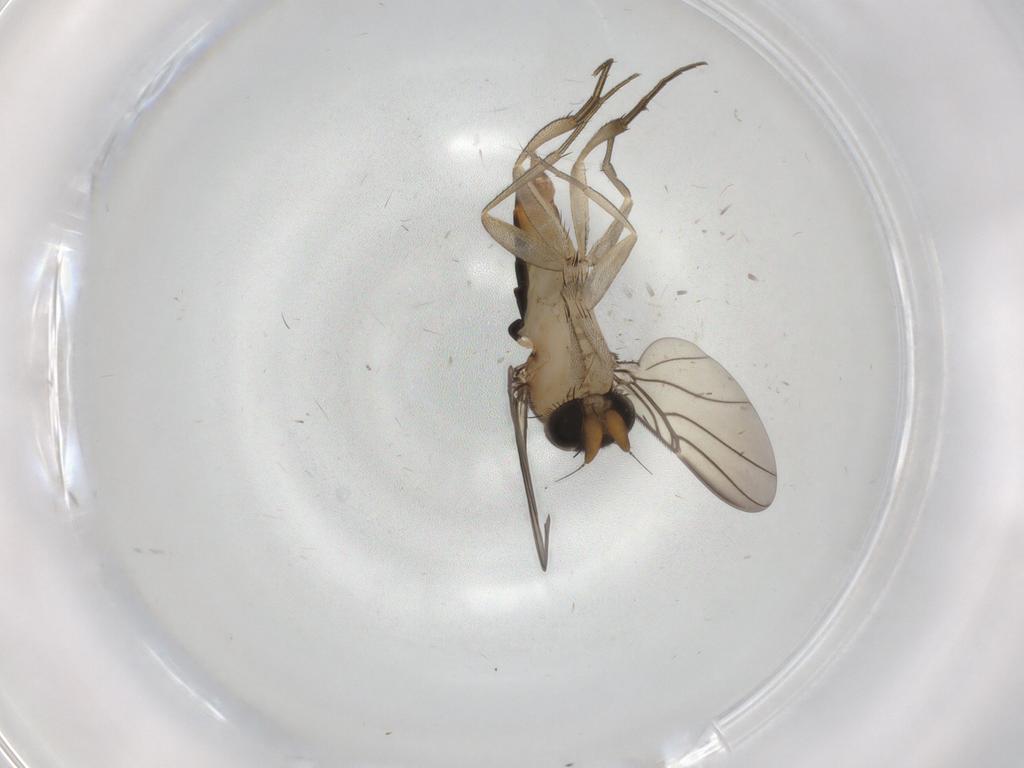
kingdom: Animalia
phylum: Arthropoda
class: Insecta
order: Diptera
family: Phoridae
